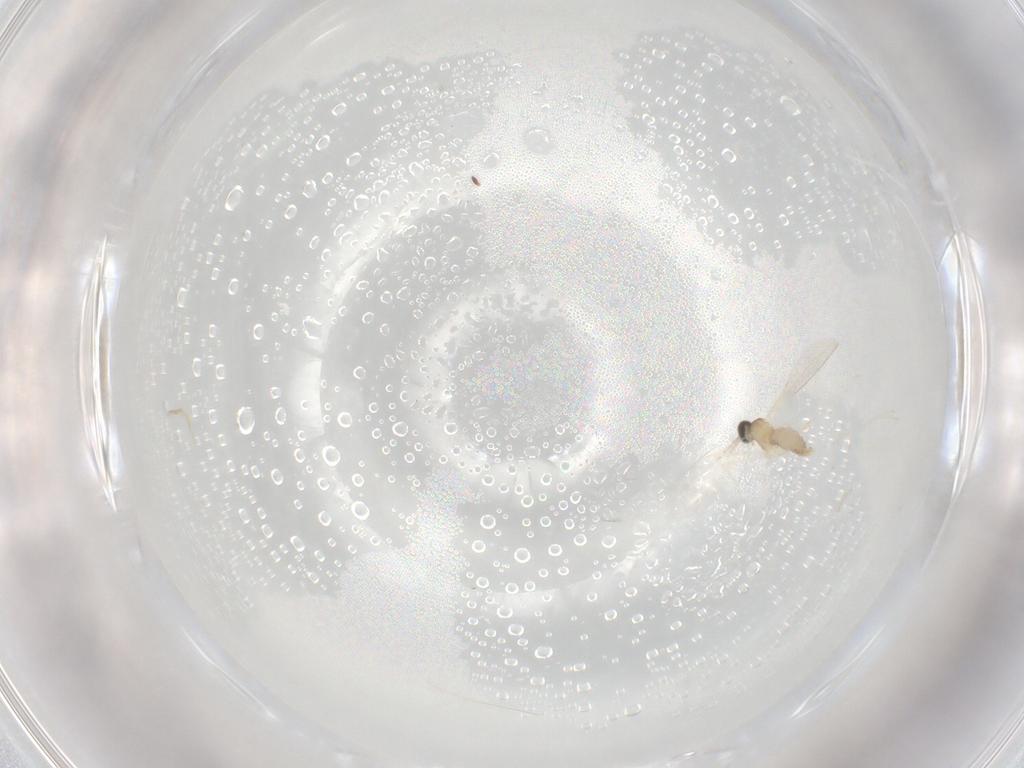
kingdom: Animalia
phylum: Arthropoda
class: Insecta
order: Diptera
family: Cecidomyiidae
